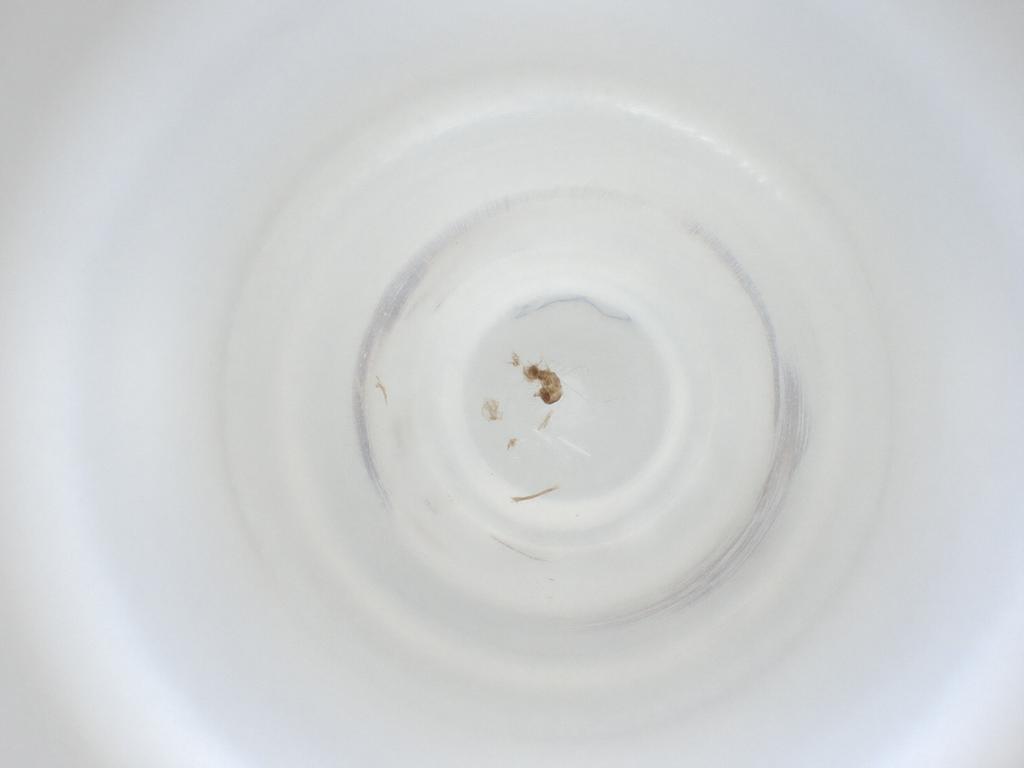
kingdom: Animalia
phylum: Arthropoda
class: Insecta
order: Diptera
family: Cecidomyiidae
